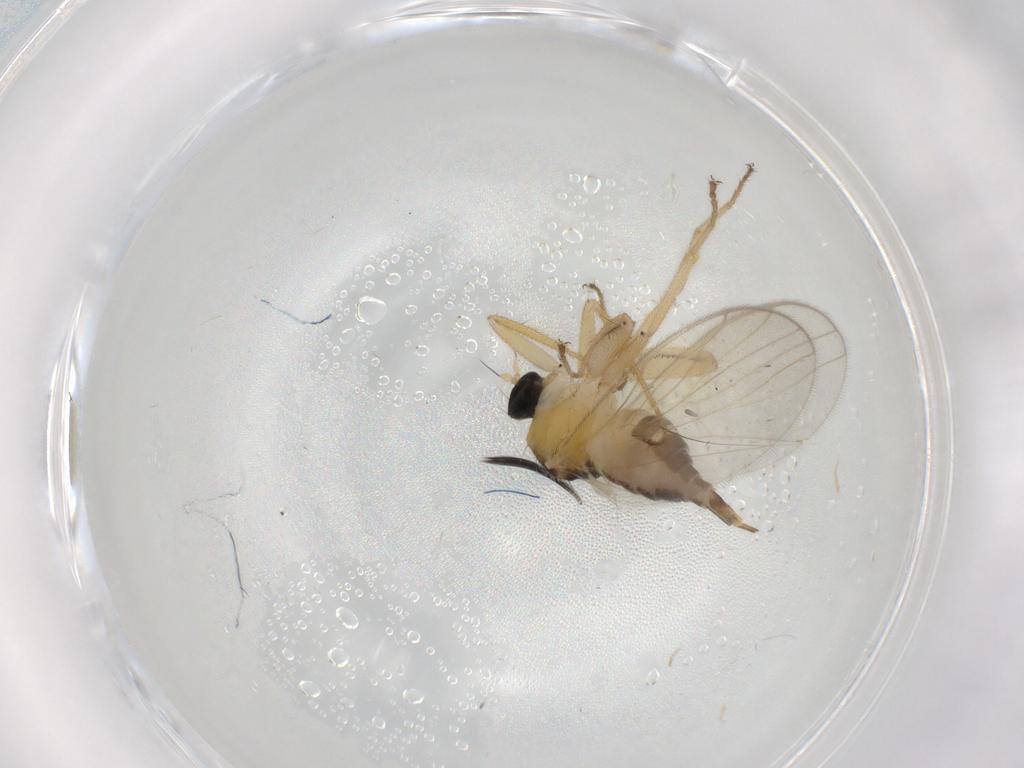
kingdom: Animalia
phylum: Arthropoda
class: Insecta
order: Diptera
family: Hybotidae
